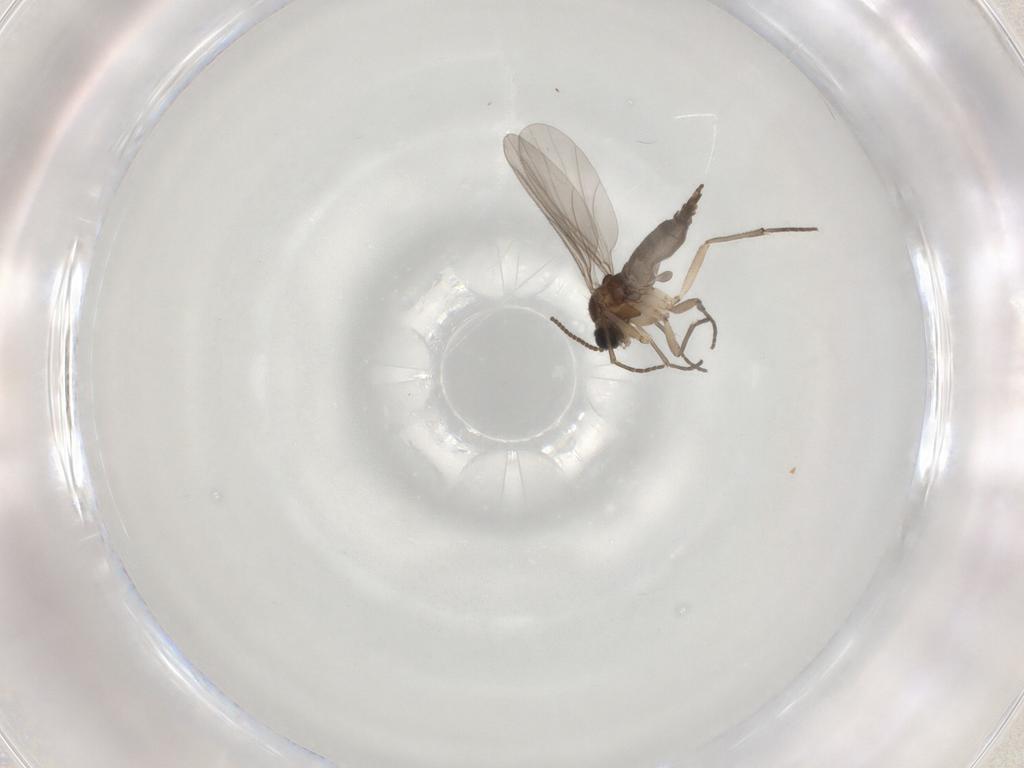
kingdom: Animalia
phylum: Arthropoda
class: Insecta
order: Diptera
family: Sciaridae
